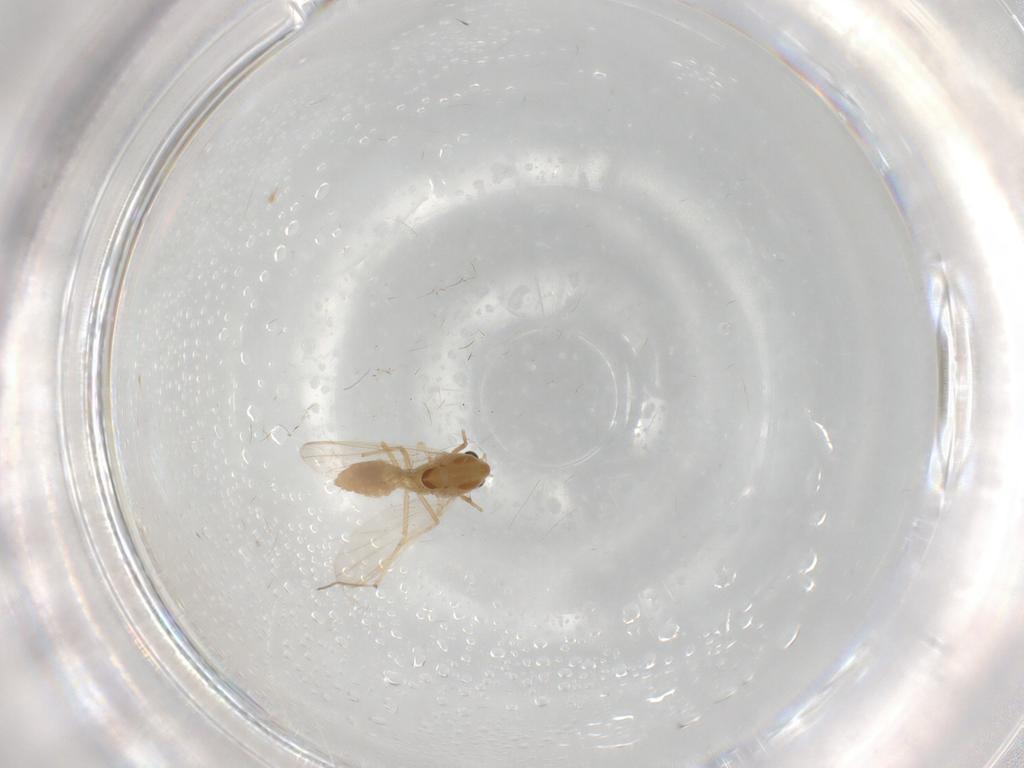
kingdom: Animalia
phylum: Arthropoda
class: Insecta
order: Diptera
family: Chironomidae
